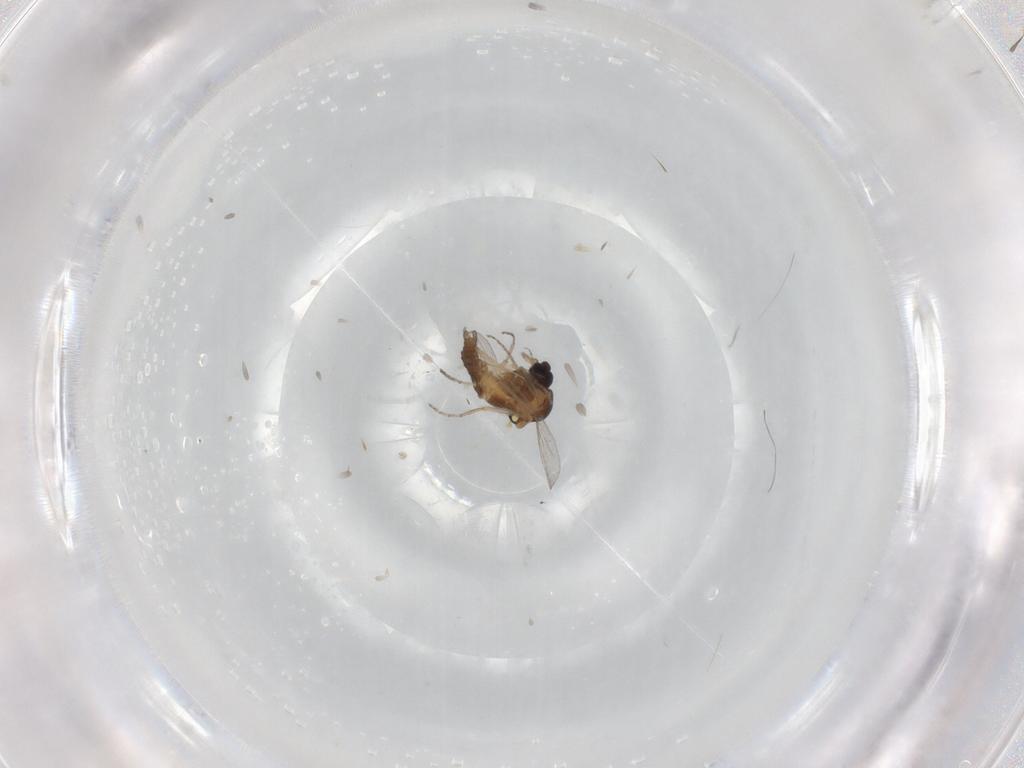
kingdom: Animalia
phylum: Arthropoda
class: Insecta
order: Diptera
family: Ceratopogonidae
